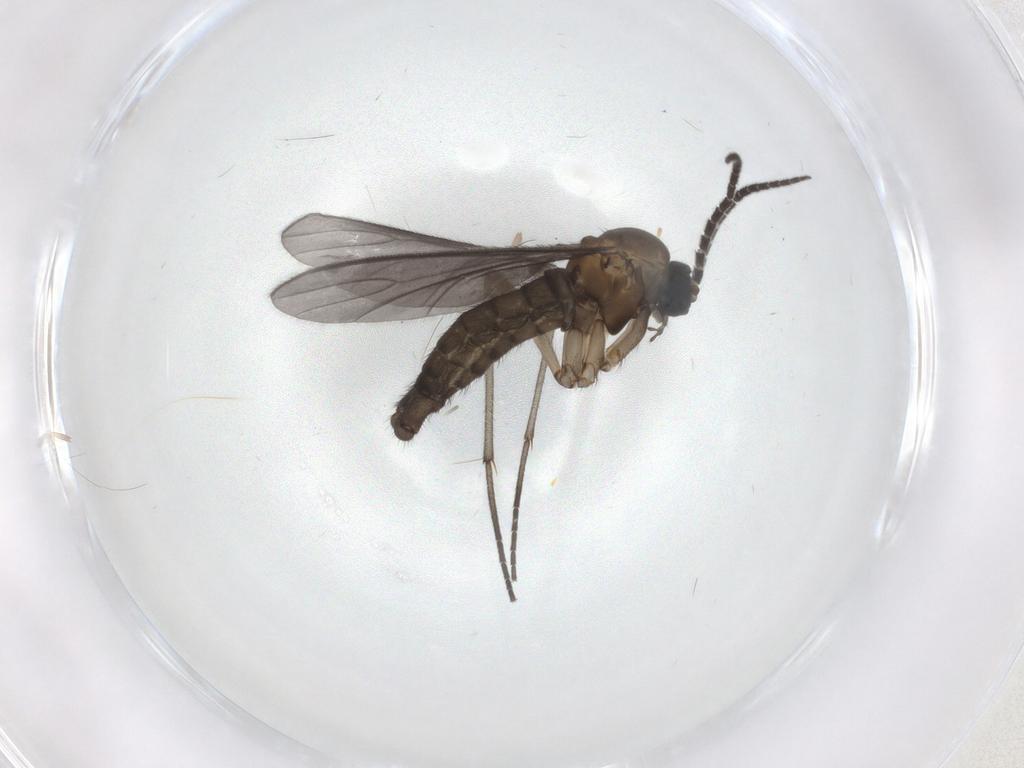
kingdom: Animalia
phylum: Arthropoda
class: Insecta
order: Diptera
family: Sciaridae
